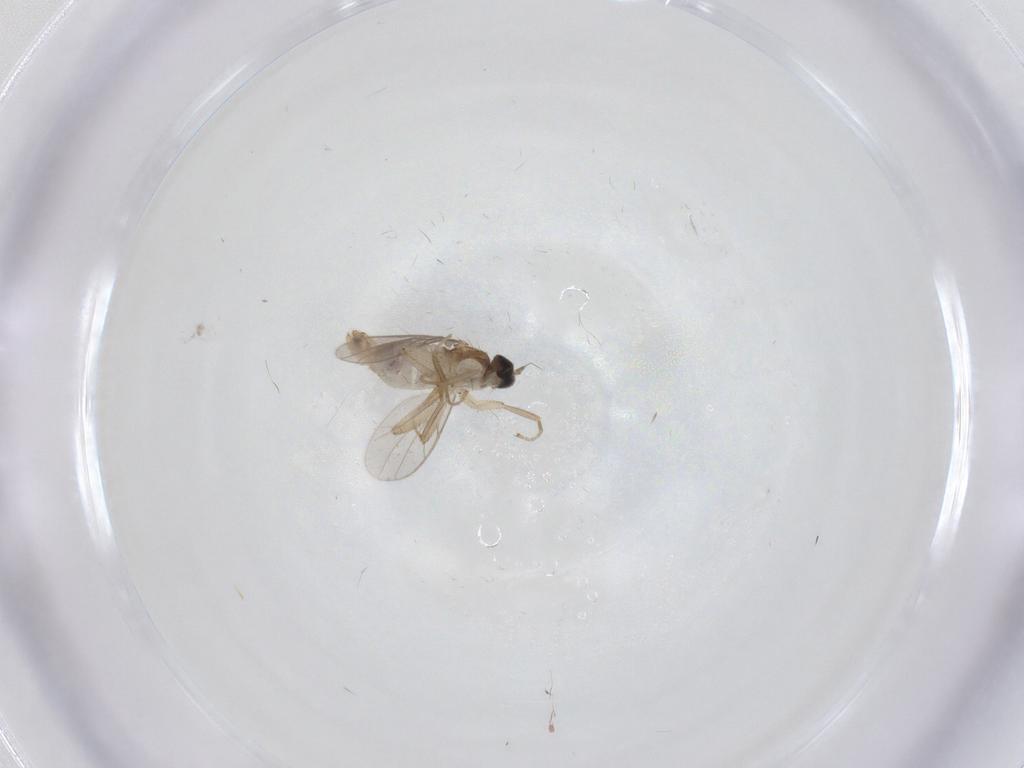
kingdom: Animalia
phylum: Arthropoda
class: Insecta
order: Diptera
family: Hybotidae
